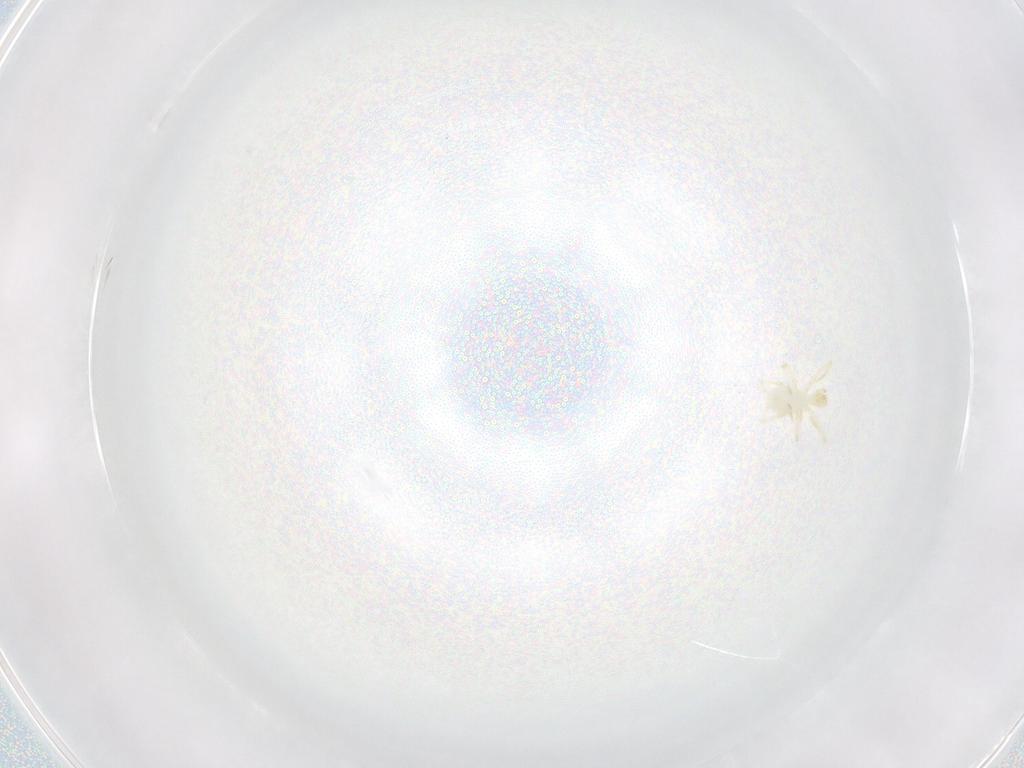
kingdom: Animalia
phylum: Arthropoda
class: Arachnida
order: Trombidiformes
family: Erythraeidae
